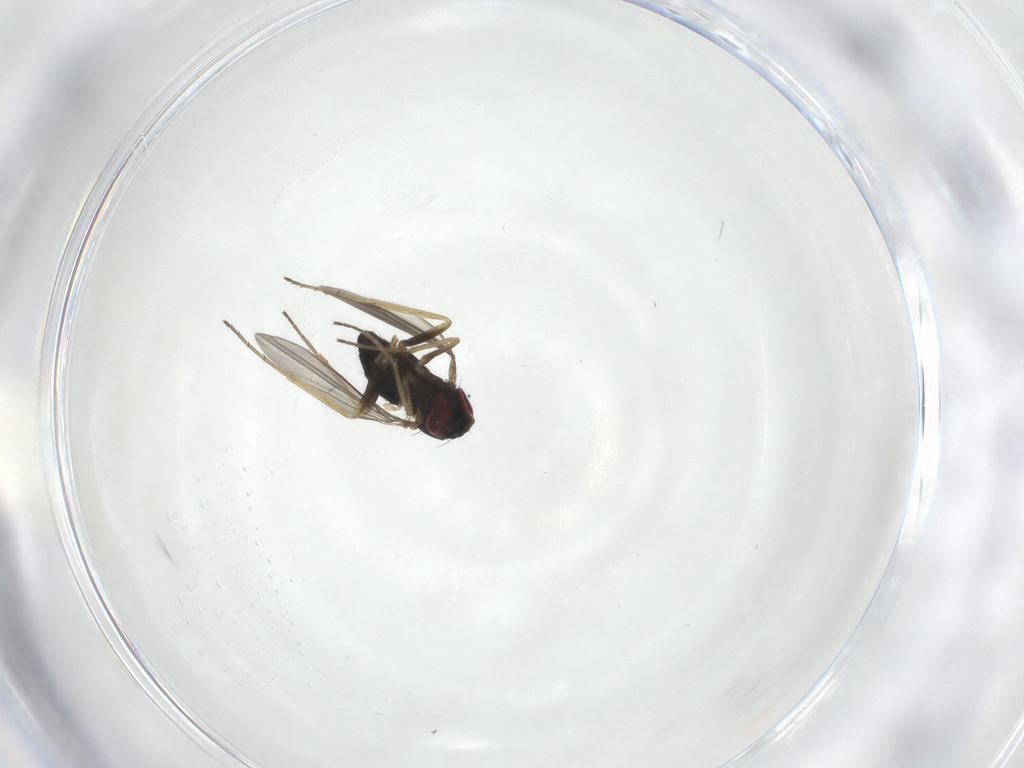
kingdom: Animalia
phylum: Arthropoda
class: Insecta
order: Diptera
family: Dolichopodidae
